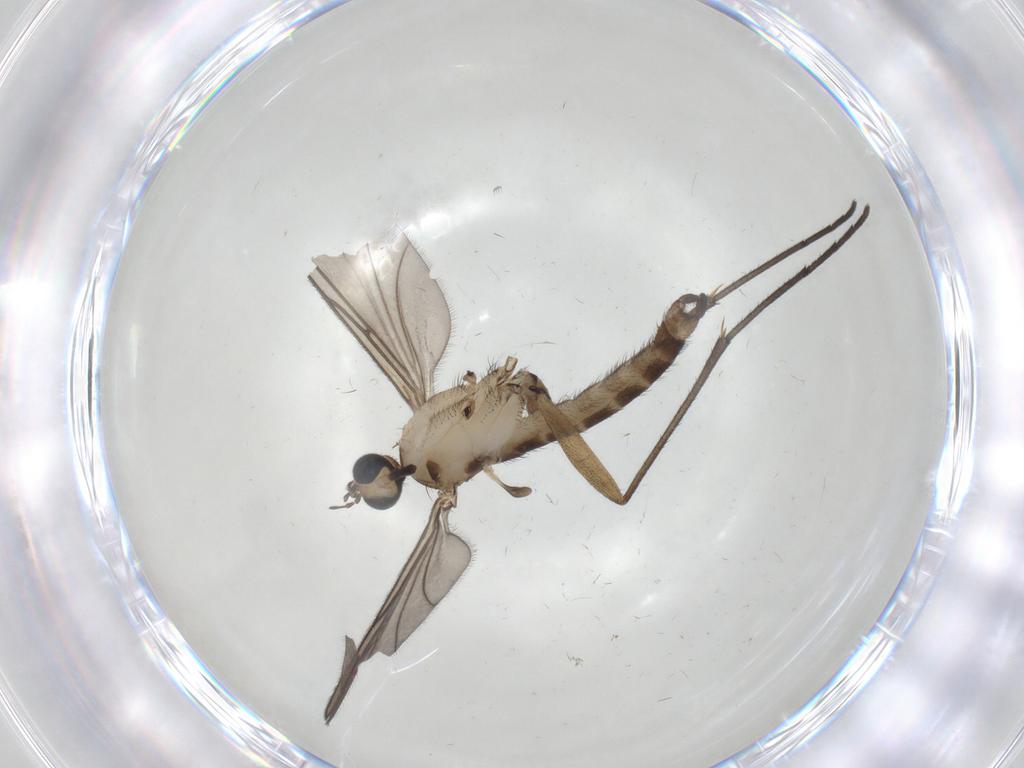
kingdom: Animalia
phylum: Arthropoda
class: Insecta
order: Diptera
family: Sciaridae
